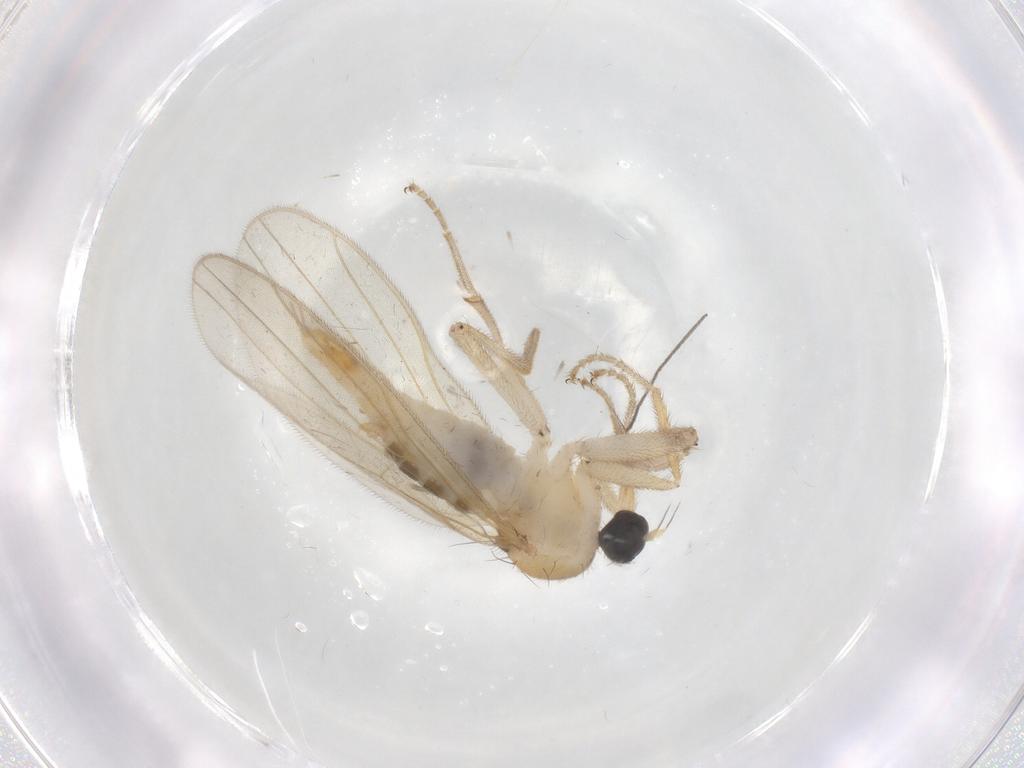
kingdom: Animalia
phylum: Arthropoda
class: Insecta
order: Diptera
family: Hybotidae
